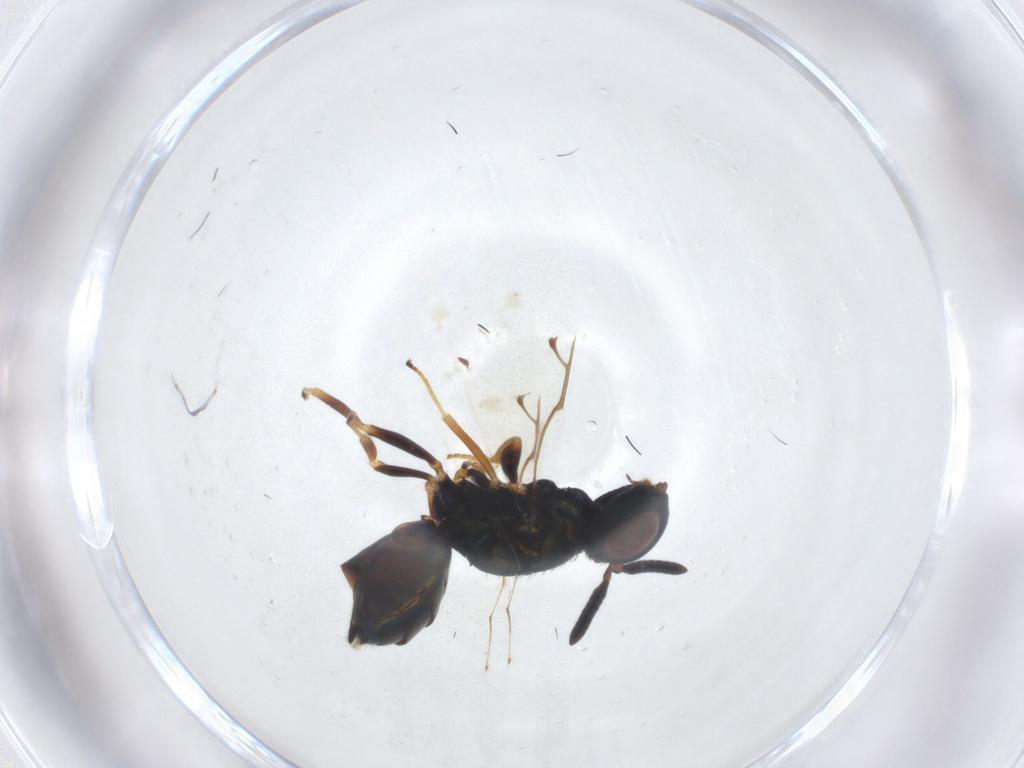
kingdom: Animalia
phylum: Arthropoda
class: Insecta
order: Hymenoptera
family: Pteromalidae
